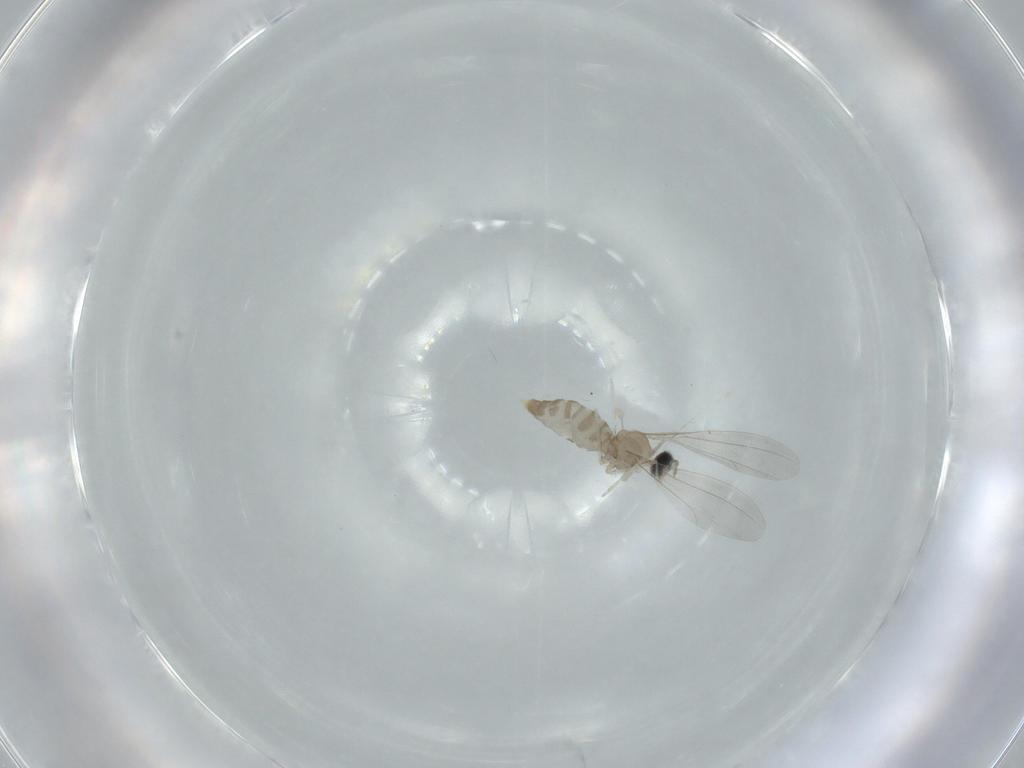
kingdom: Animalia
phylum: Arthropoda
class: Insecta
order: Diptera
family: Cecidomyiidae
